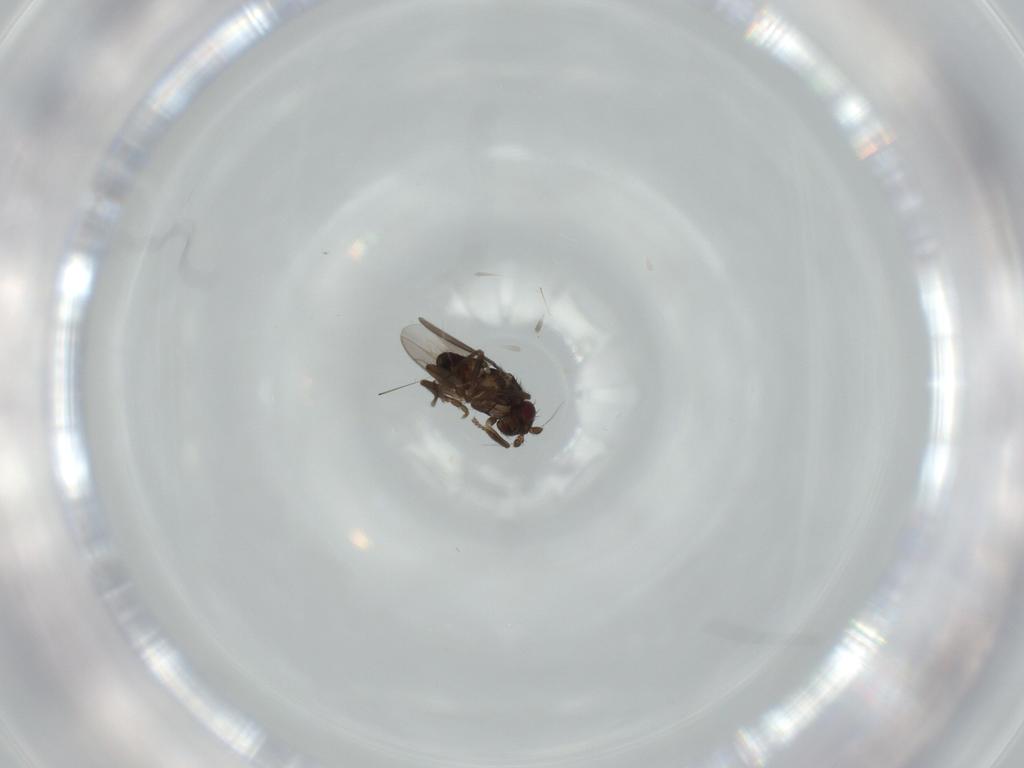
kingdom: Animalia
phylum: Arthropoda
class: Insecta
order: Diptera
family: Sphaeroceridae
